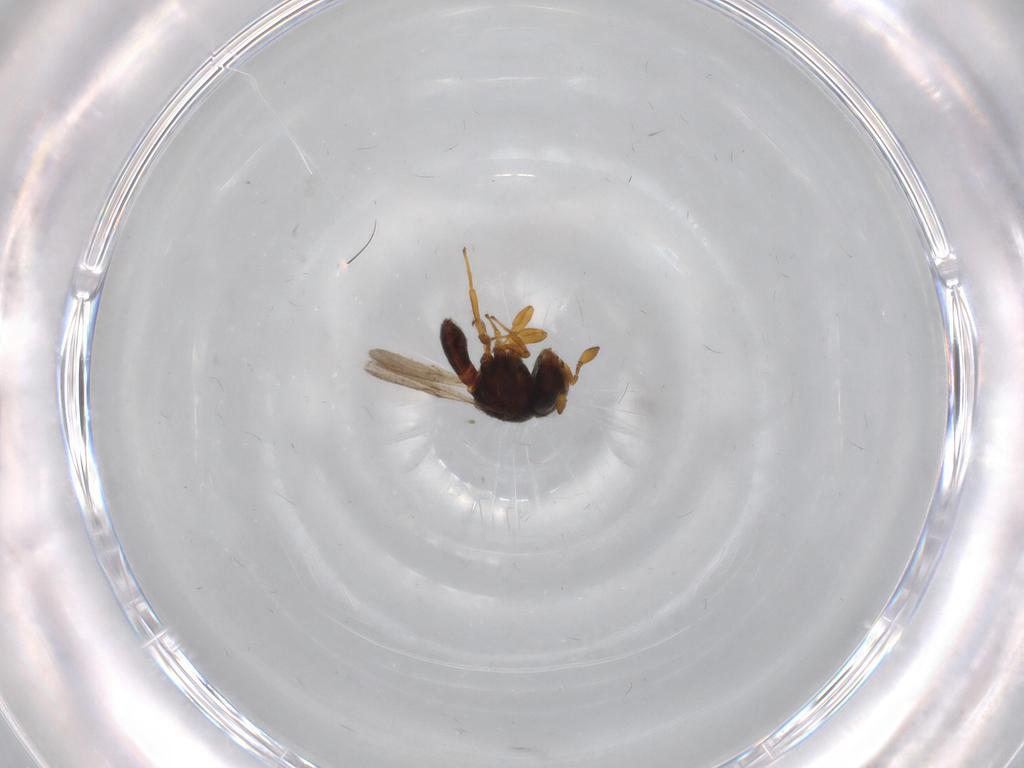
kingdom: Animalia
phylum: Arthropoda
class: Insecta
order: Hymenoptera
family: Scelionidae
